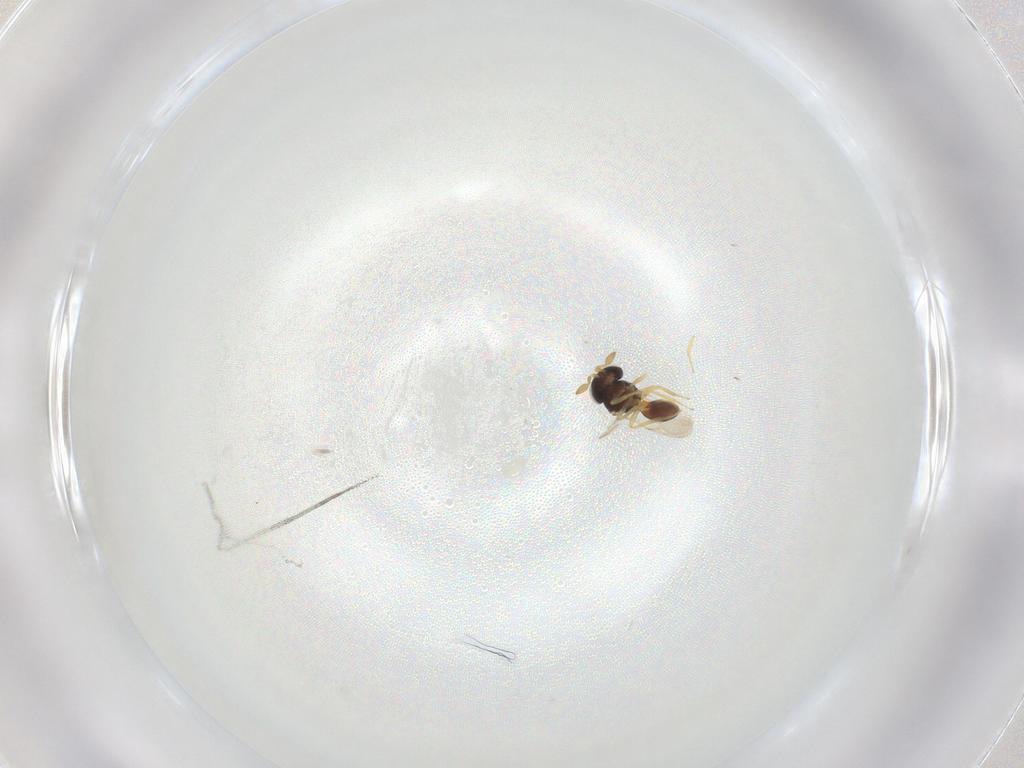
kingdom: Animalia
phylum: Arthropoda
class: Insecta
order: Hymenoptera
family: Scelionidae
